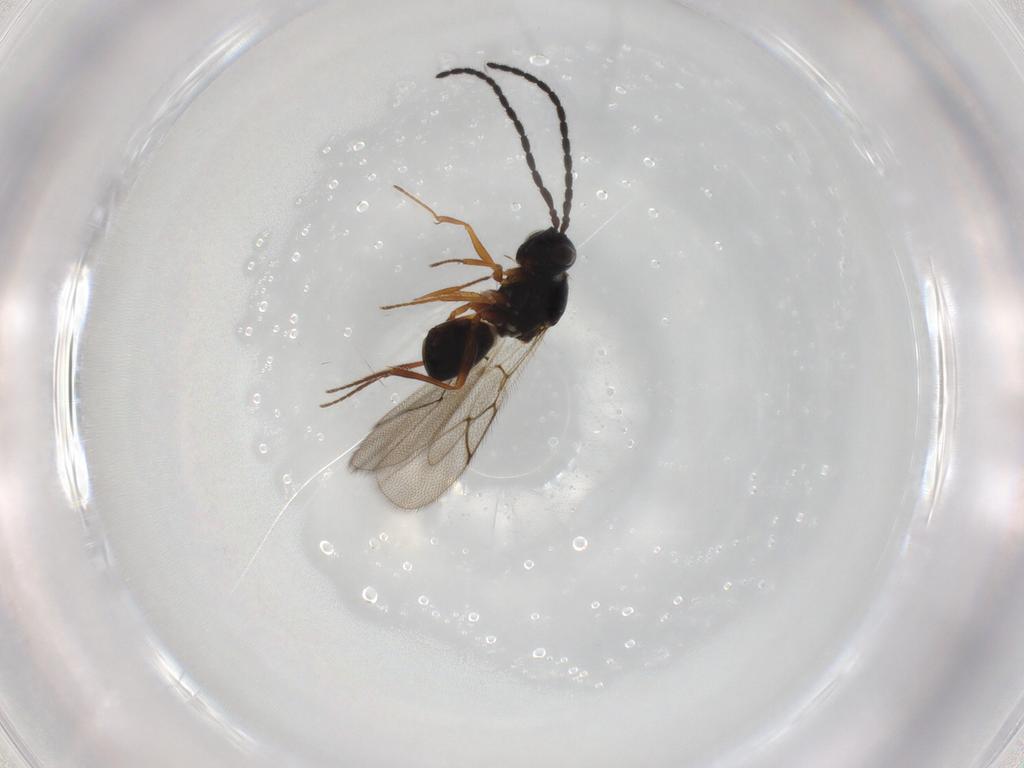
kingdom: Animalia
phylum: Arthropoda
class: Insecta
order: Hymenoptera
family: Figitidae
